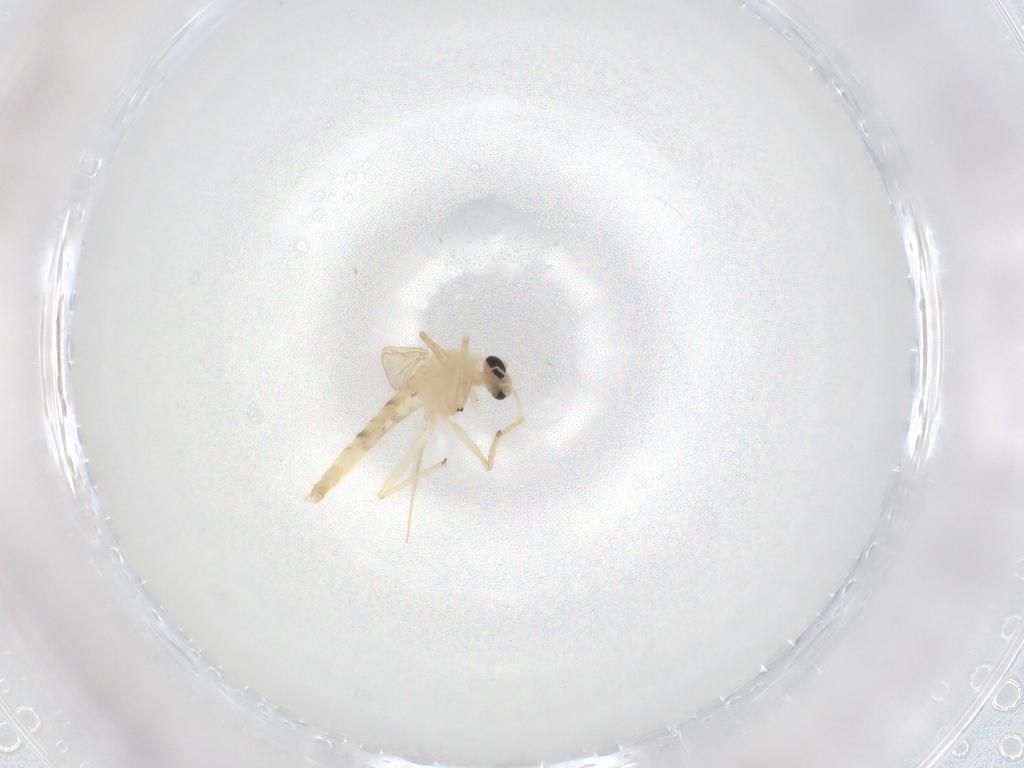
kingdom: Animalia
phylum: Arthropoda
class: Insecta
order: Diptera
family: Chironomidae
